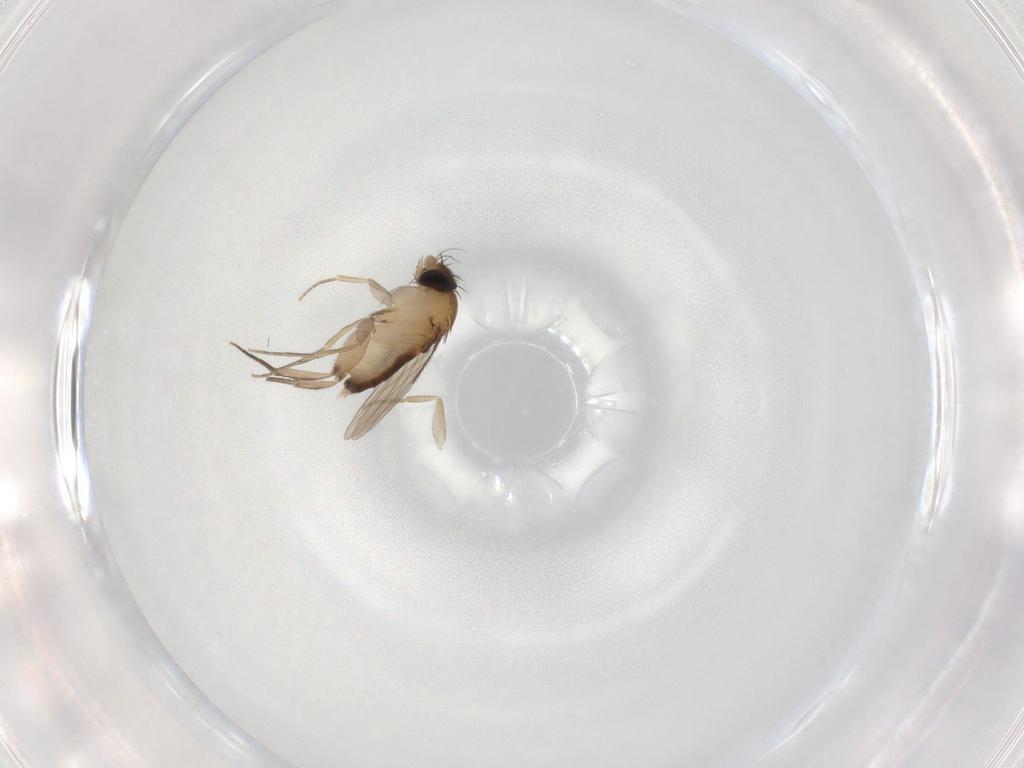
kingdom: Animalia
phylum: Arthropoda
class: Insecta
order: Diptera
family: Phoridae
